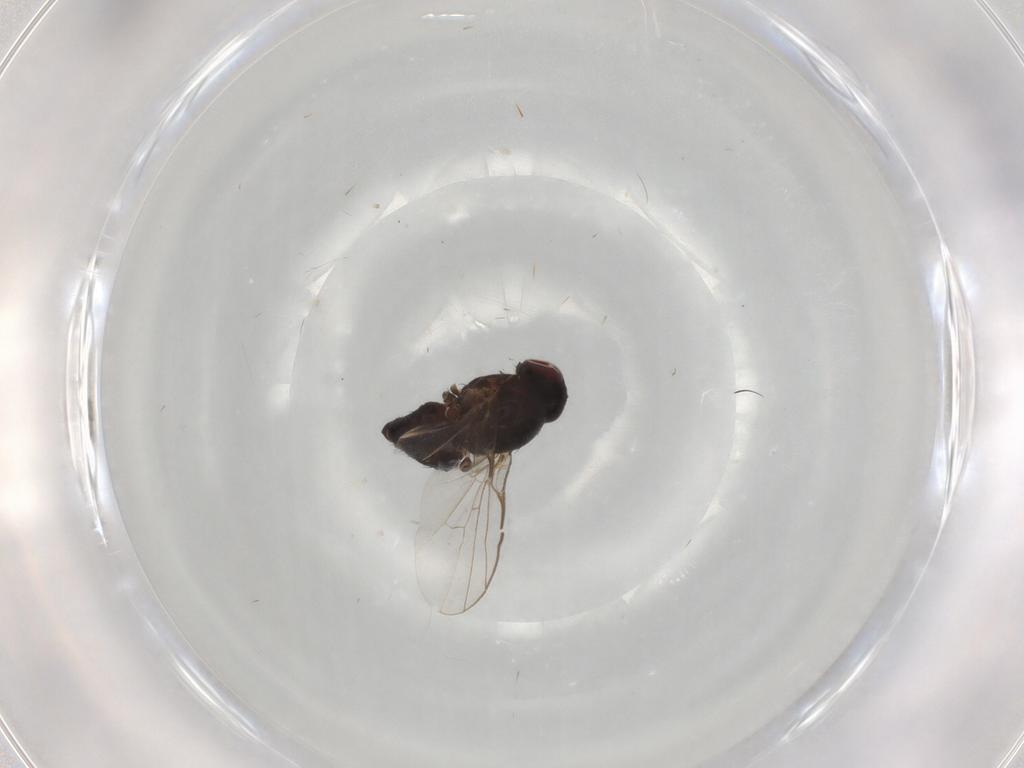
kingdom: Animalia
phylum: Arthropoda
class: Insecta
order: Diptera
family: Agromyzidae
